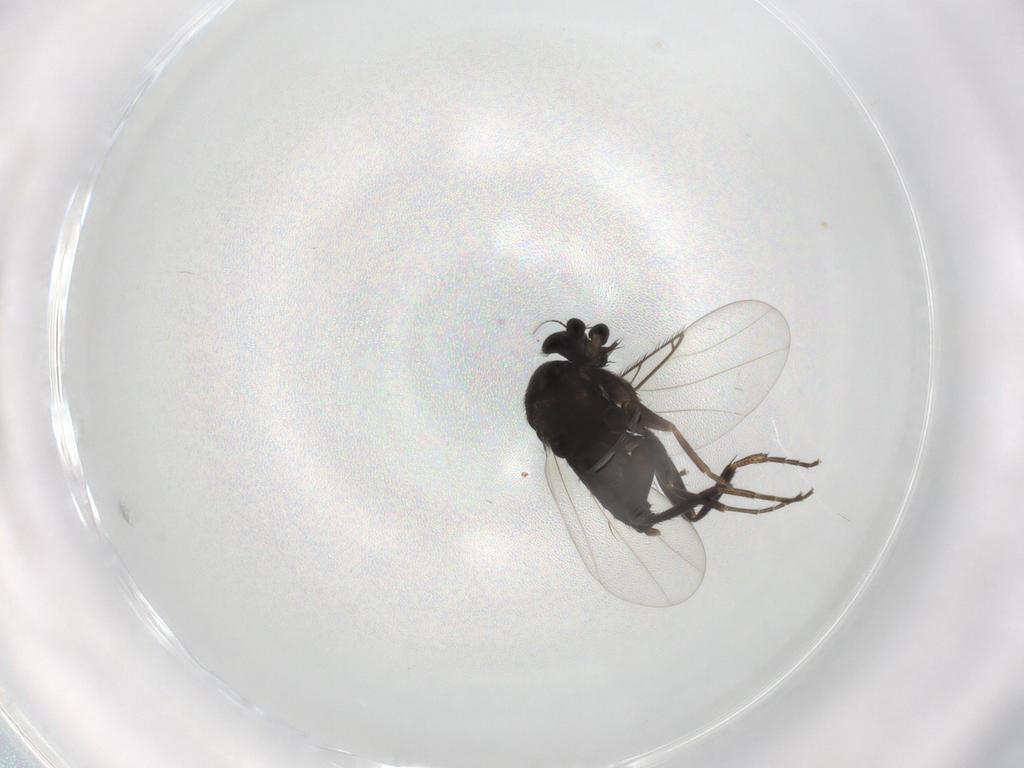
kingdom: Animalia
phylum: Arthropoda
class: Insecta
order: Diptera
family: Phoridae
